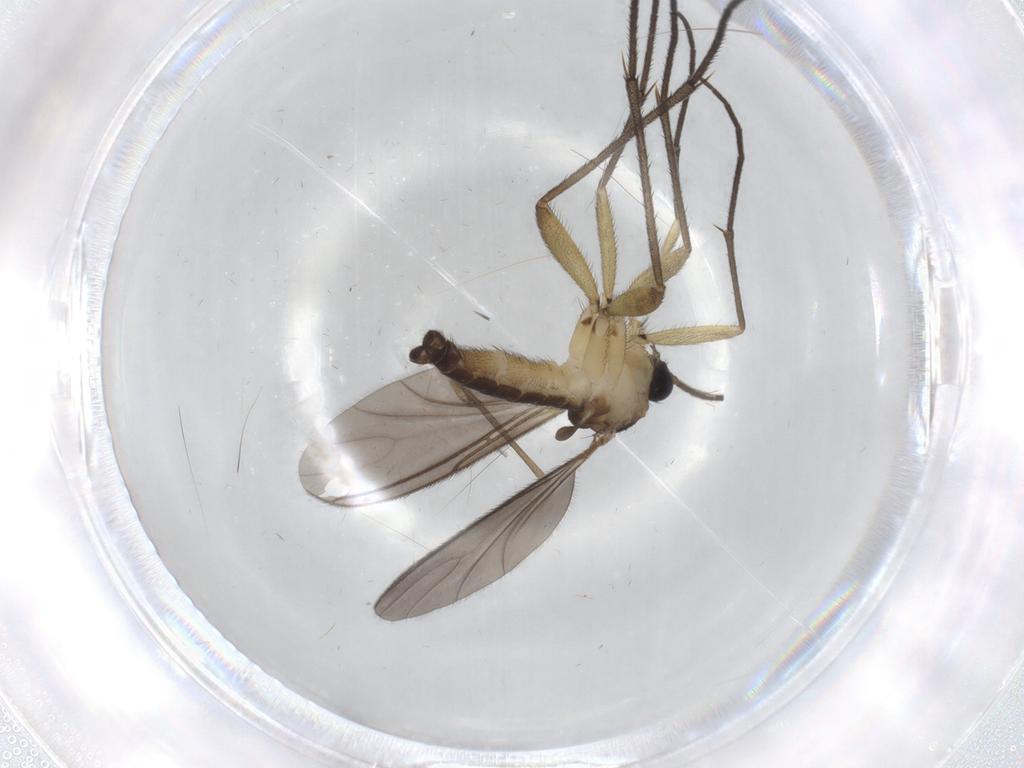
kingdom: Animalia
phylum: Arthropoda
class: Insecta
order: Diptera
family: Sciaridae
